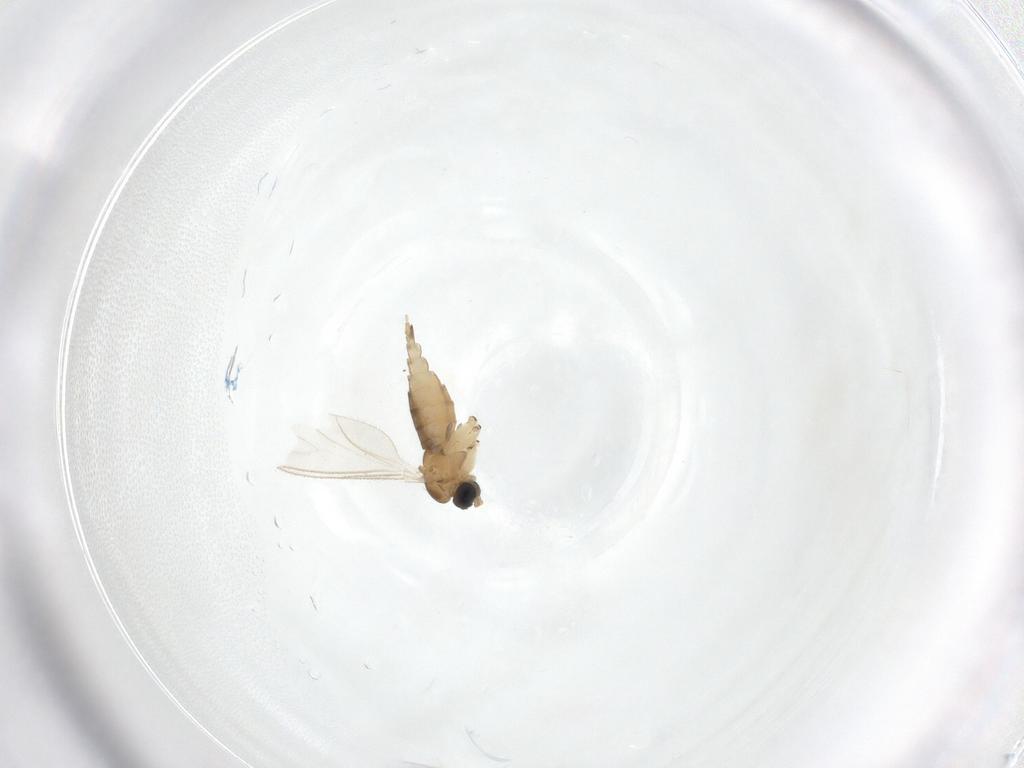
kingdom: Animalia
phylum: Arthropoda
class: Insecta
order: Diptera
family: Sciaridae
